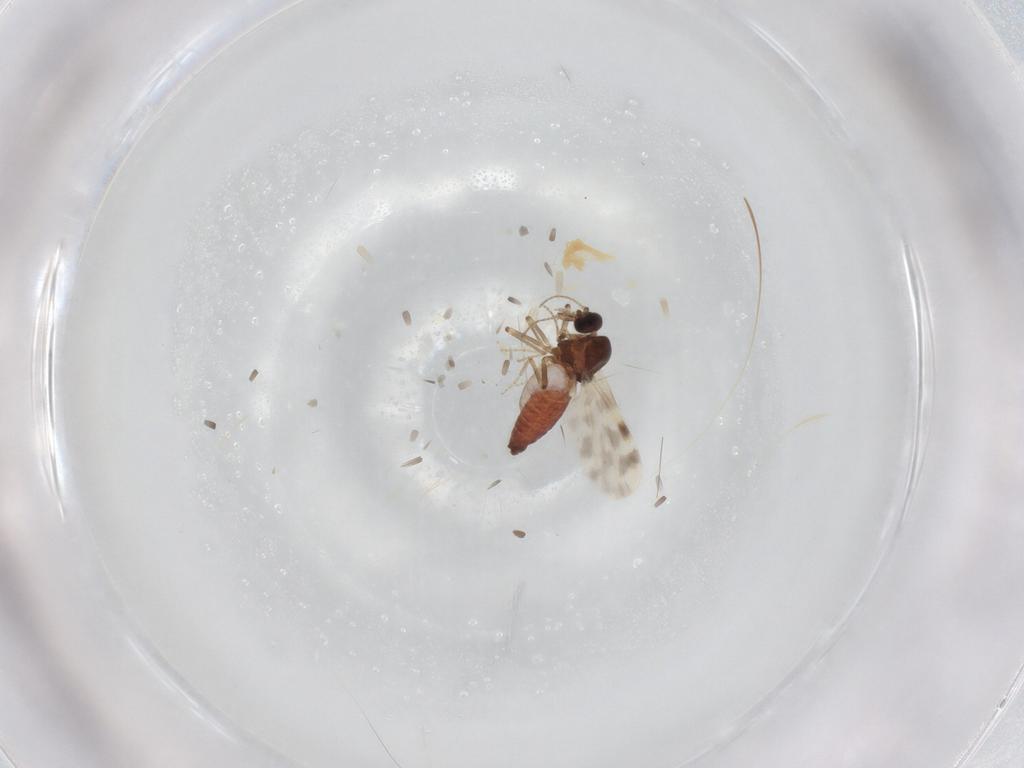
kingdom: Animalia
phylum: Arthropoda
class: Insecta
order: Diptera
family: Ceratopogonidae
